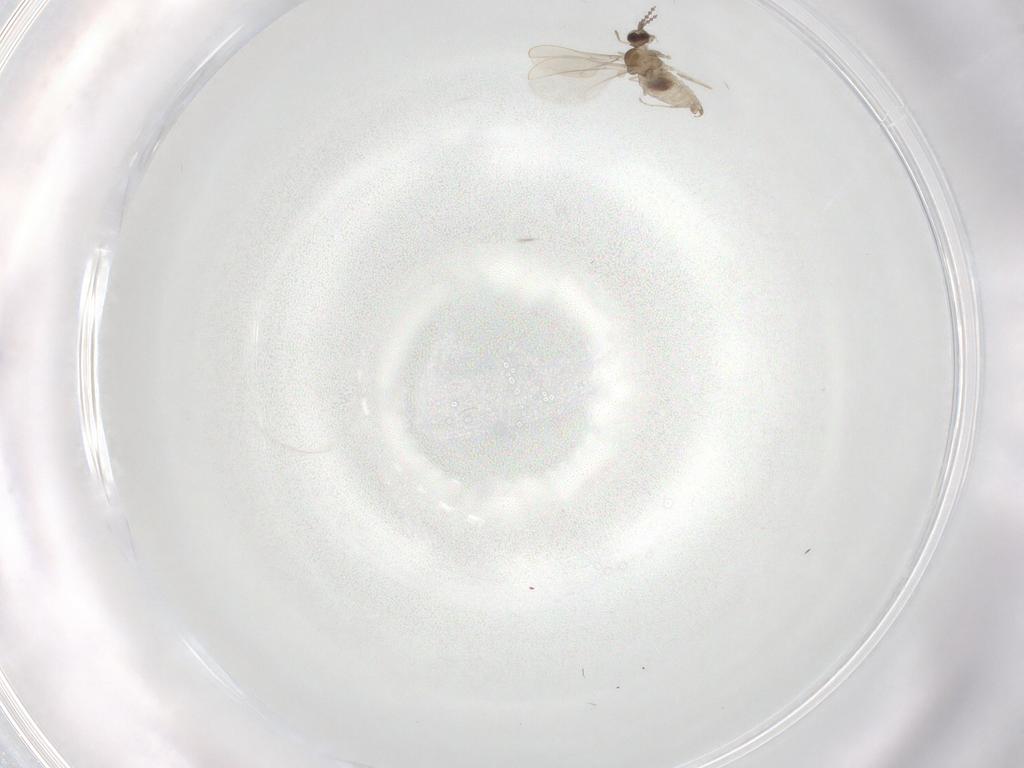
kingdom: Animalia
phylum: Arthropoda
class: Insecta
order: Diptera
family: Tipulidae
